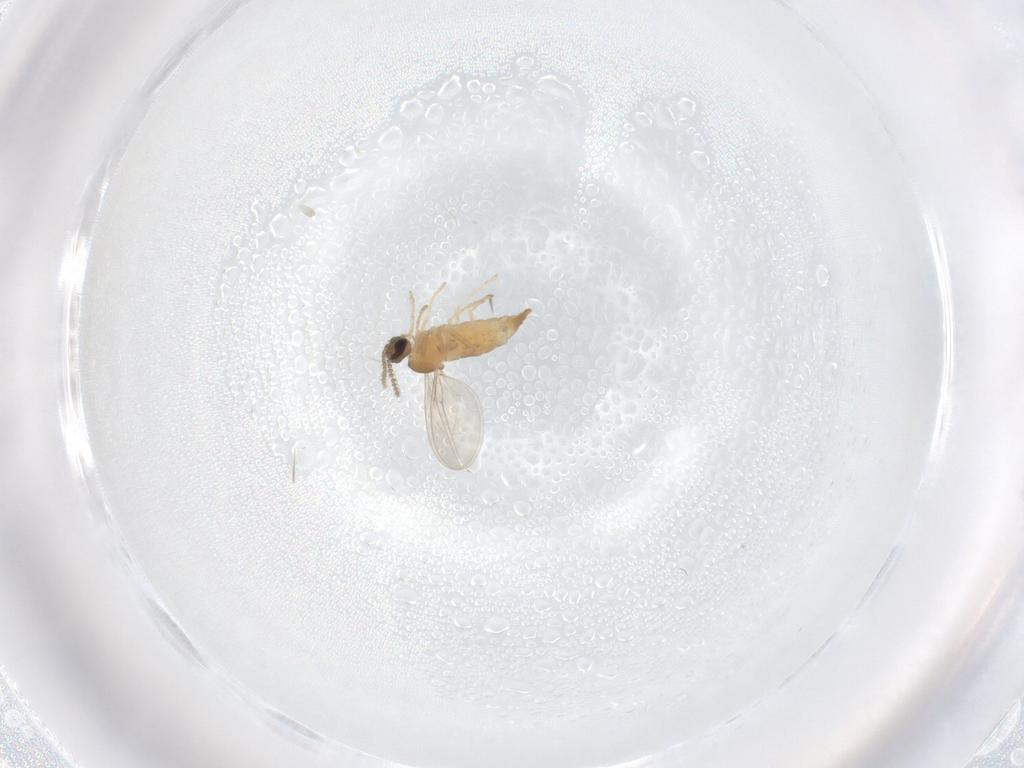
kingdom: Animalia
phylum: Arthropoda
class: Insecta
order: Diptera
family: Cecidomyiidae
